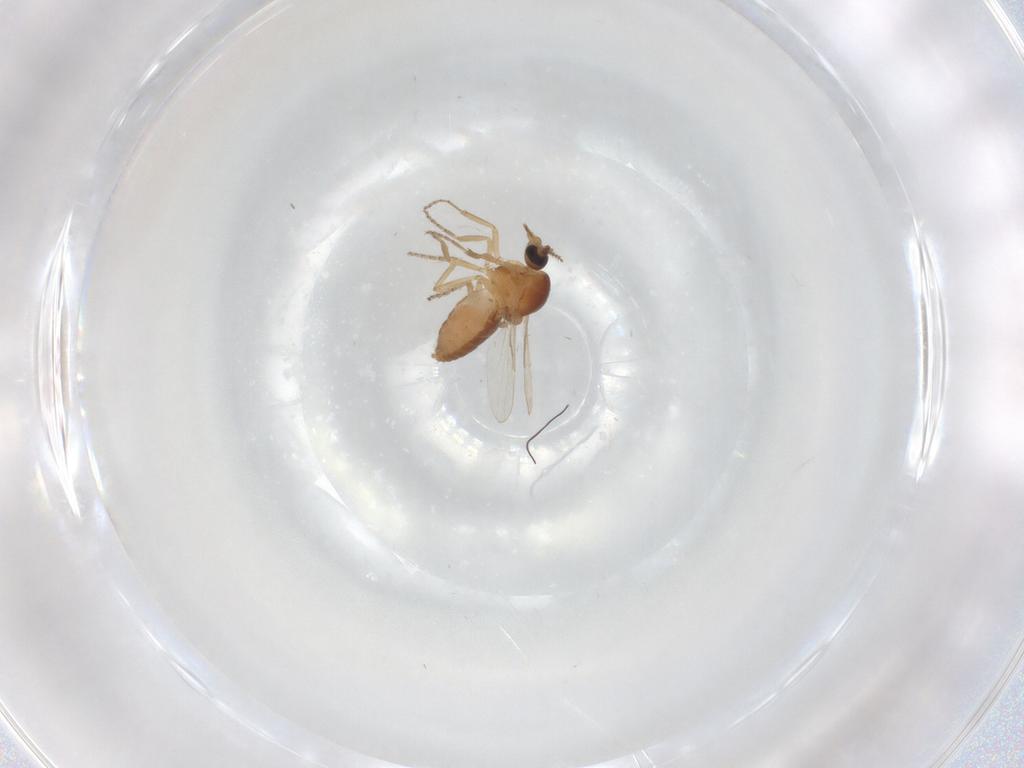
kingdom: Animalia
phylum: Arthropoda
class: Insecta
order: Diptera
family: Ceratopogonidae
